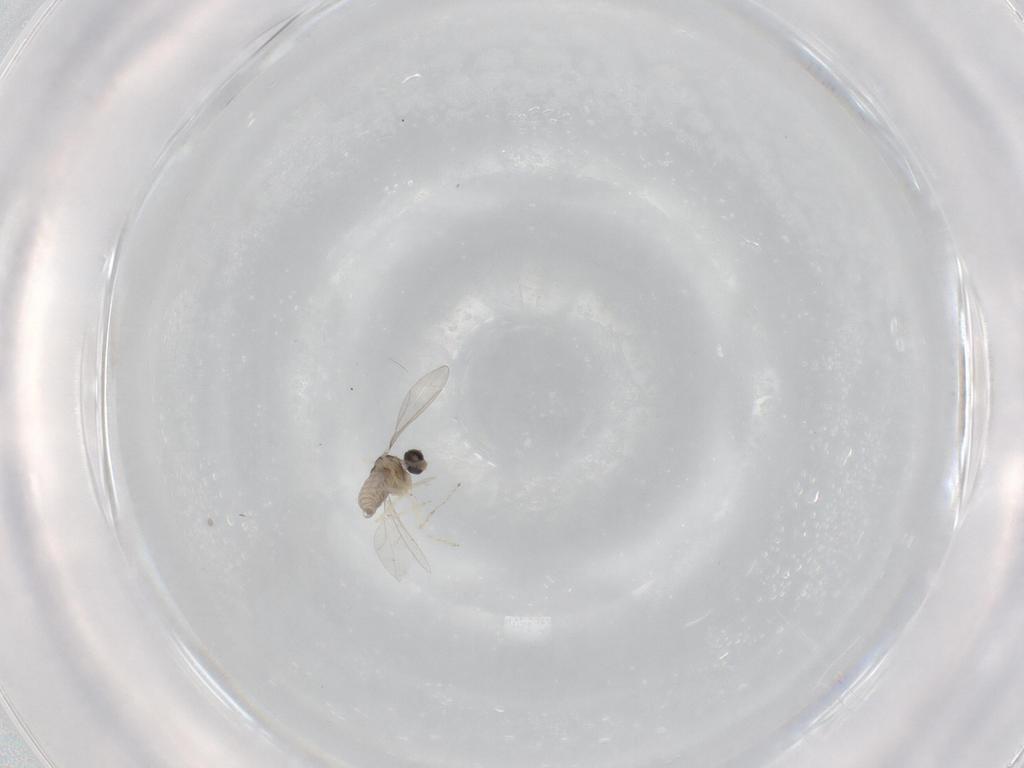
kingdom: Animalia
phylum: Arthropoda
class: Insecta
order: Diptera
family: Cecidomyiidae
